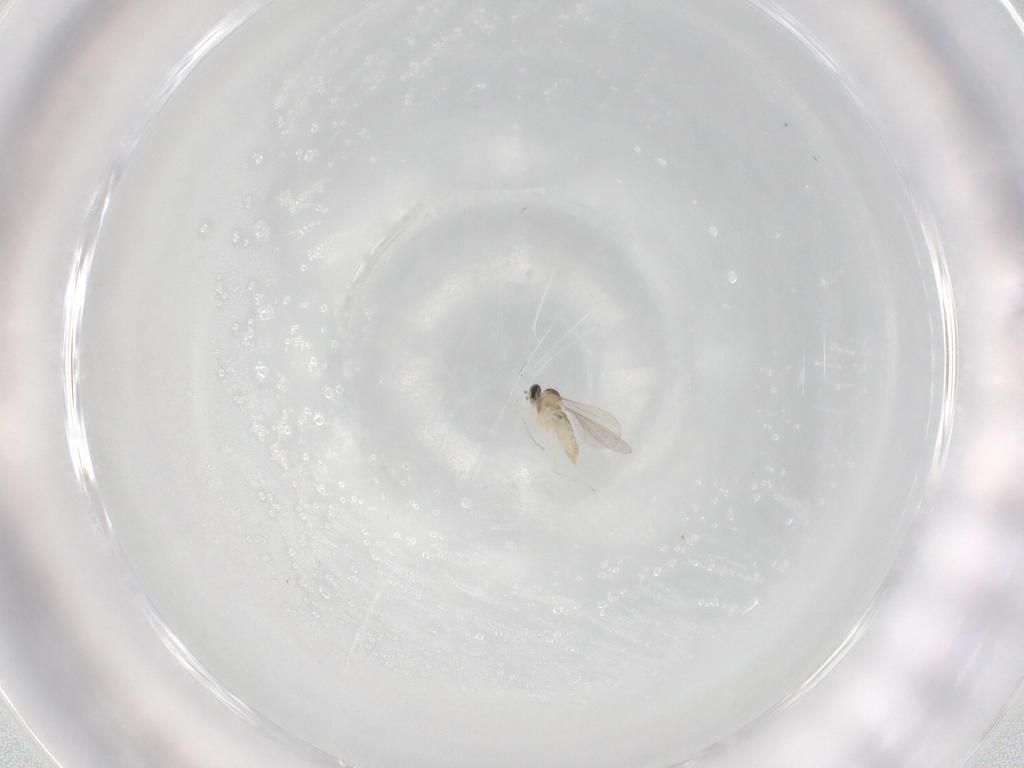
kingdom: Animalia
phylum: Arthropoda
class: Insecta
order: Diptera
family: Cecidomyiidae
